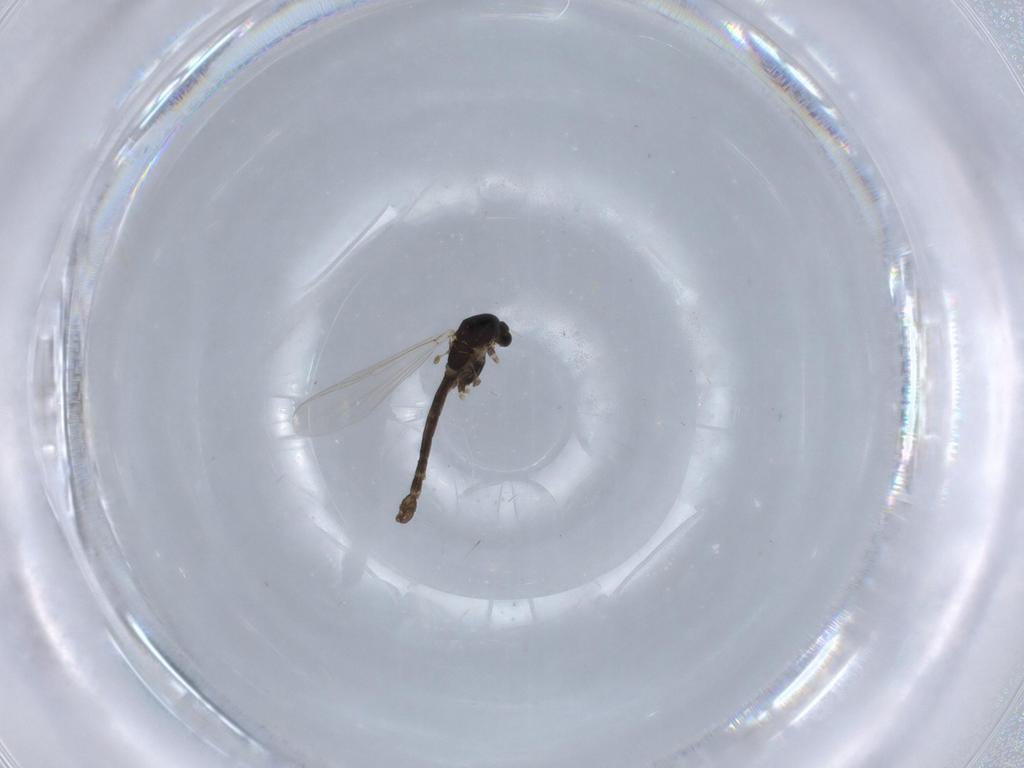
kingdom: Animalia
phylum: Arthropoda
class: Insecta
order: Diptera
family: Chironomidae
